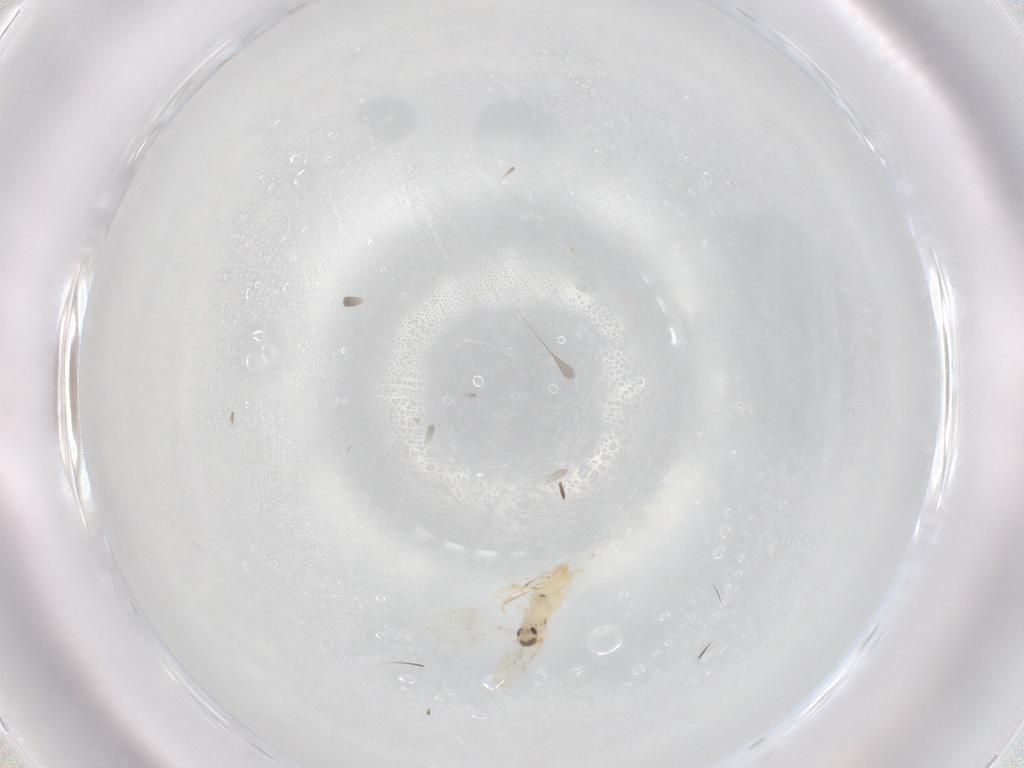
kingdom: Animalia
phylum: Arthropoda
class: Insecta
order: Diptera
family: Cecidomyiidae
